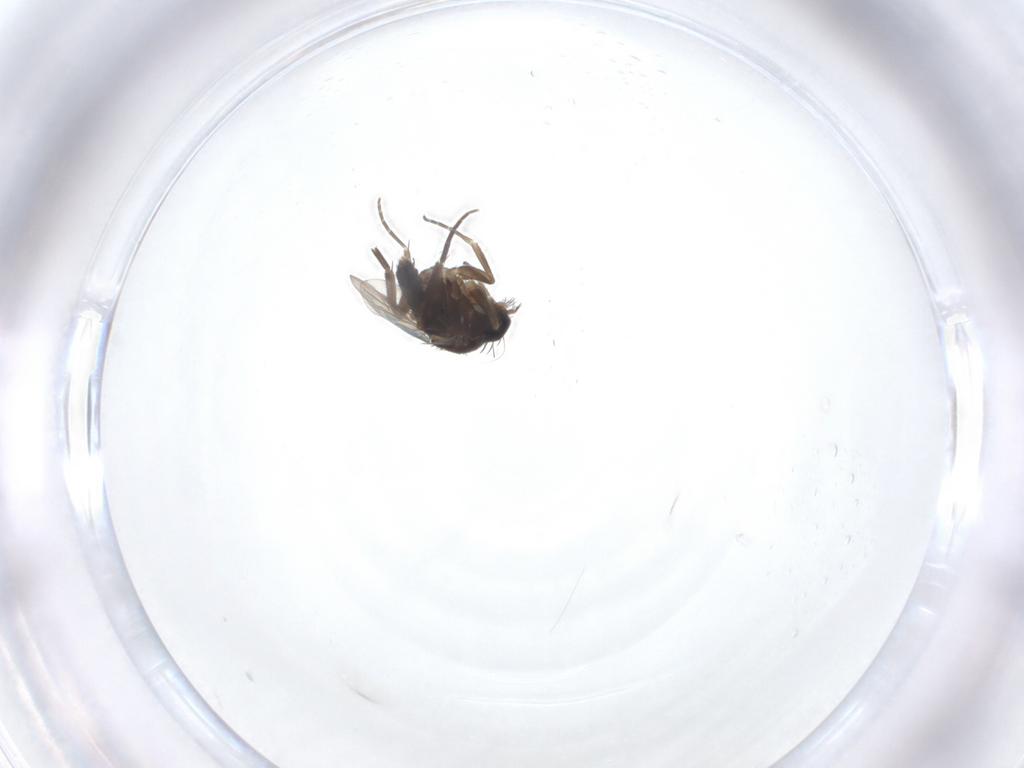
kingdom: Animalia
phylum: Arthropoda
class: Insecta
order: Diptera
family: Phoridae
